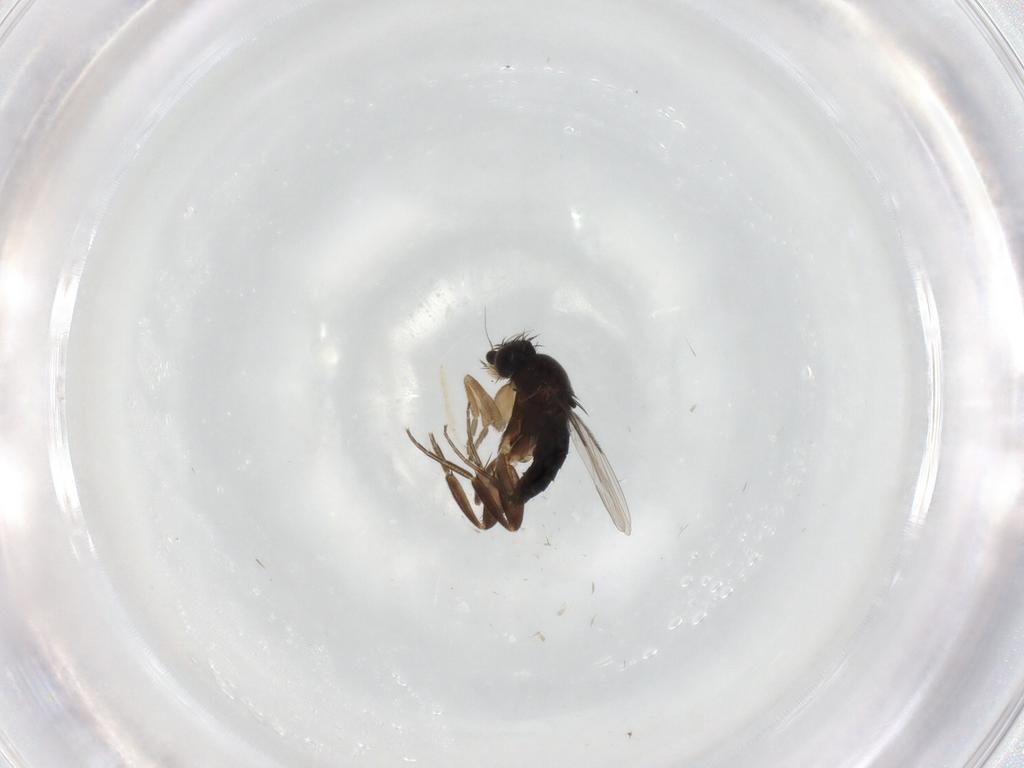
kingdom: Animalia
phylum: Arthropoda
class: Insecta
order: Diptera
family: Phoridae
